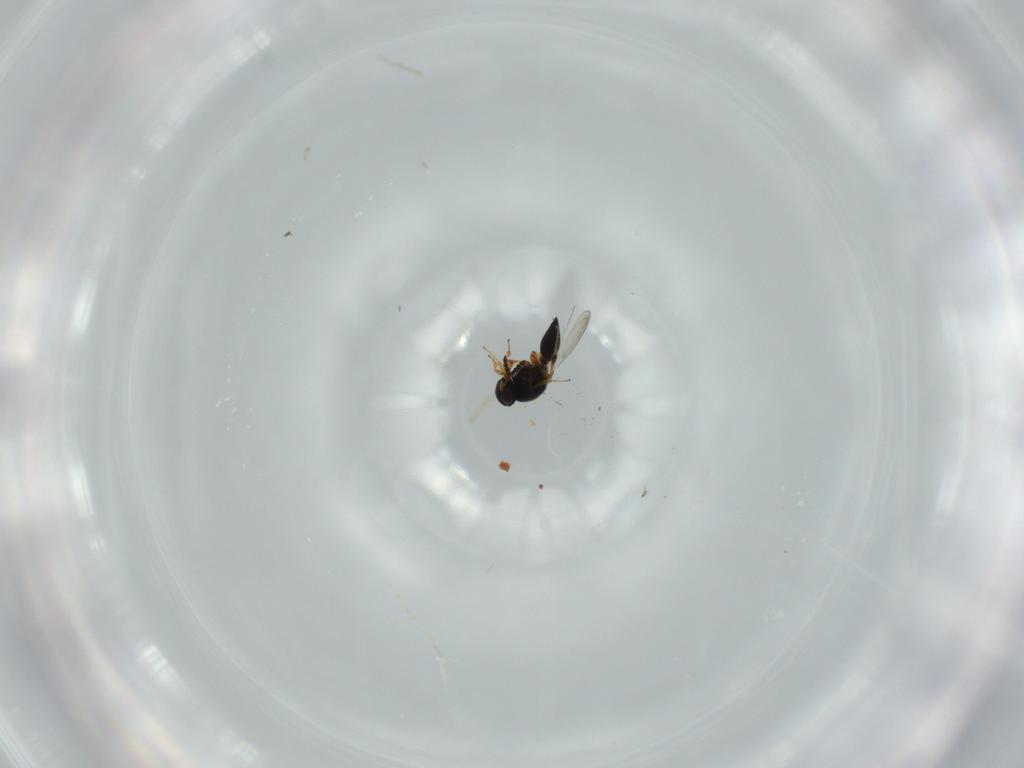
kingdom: Animalia
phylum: Arthropoda
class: Insecta
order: Hymenoptera
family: Platygastridae
